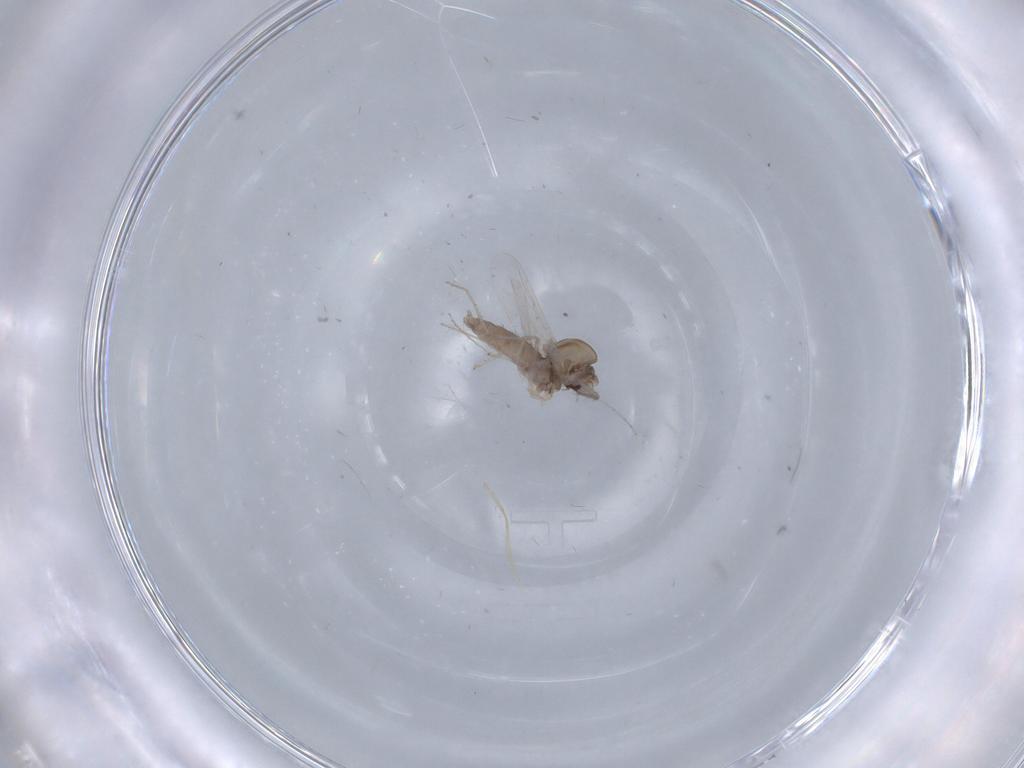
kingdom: Animalia
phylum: Arthropoda
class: Insecta
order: Diptera
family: Chironomidae
